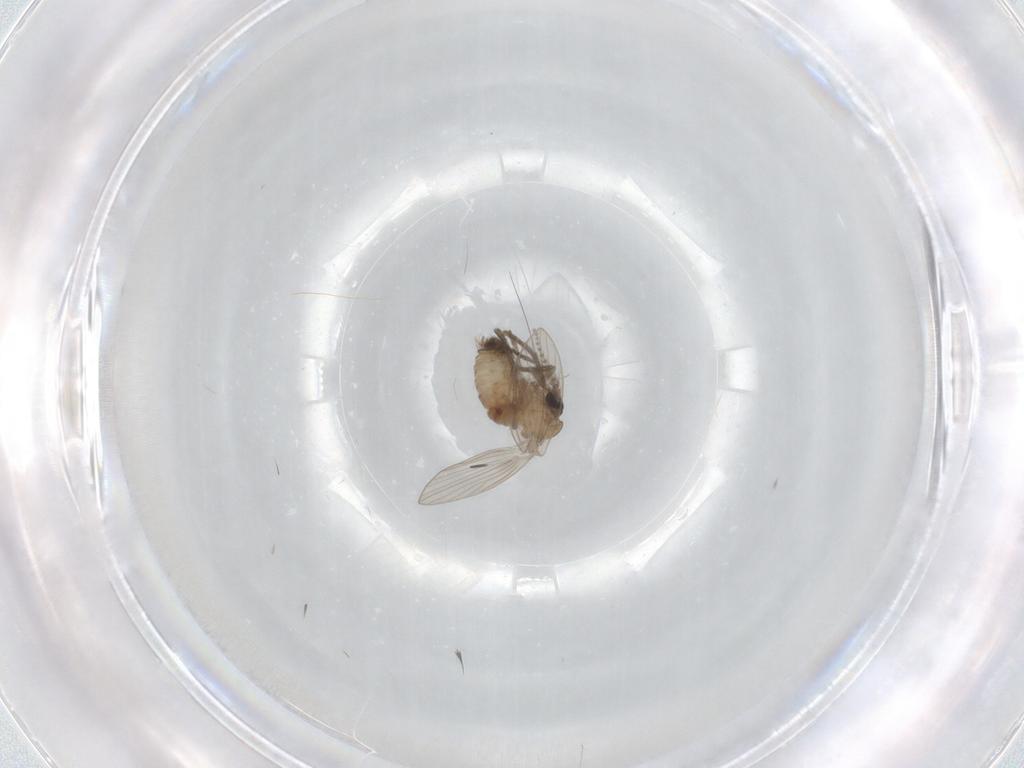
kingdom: Animalia
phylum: Arthropoda
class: Insecta
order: Diptera
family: Psychodidae
